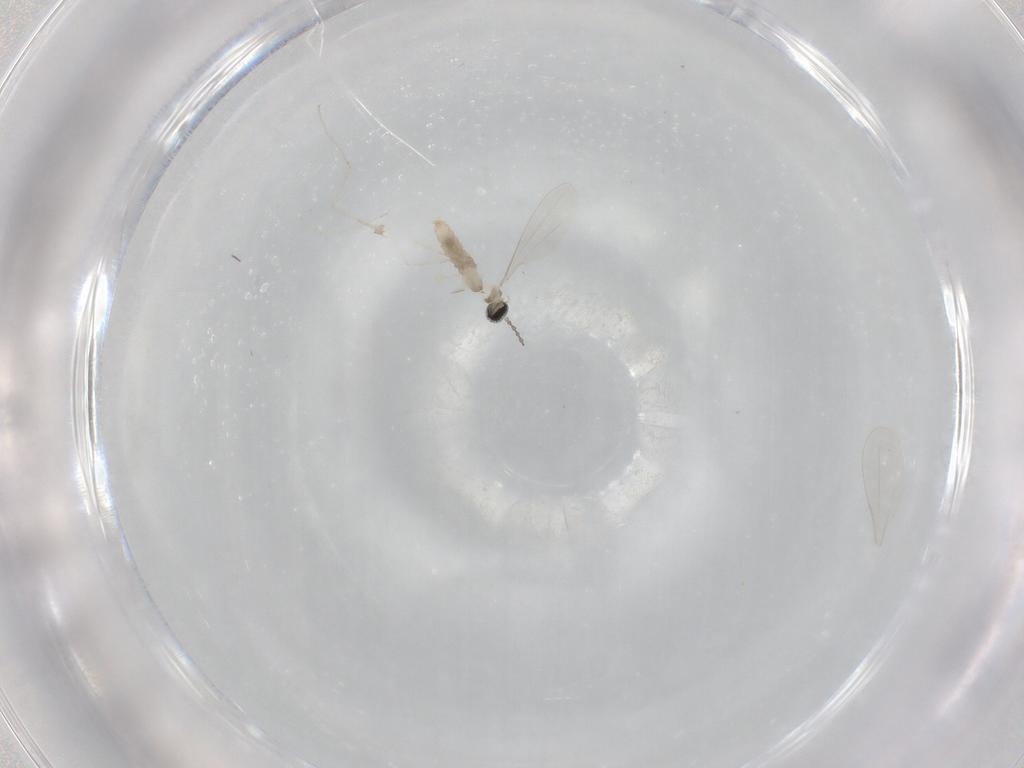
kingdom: Animalia
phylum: Arthropoda
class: Insecta
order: Diptera
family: Cecidomyiidae
